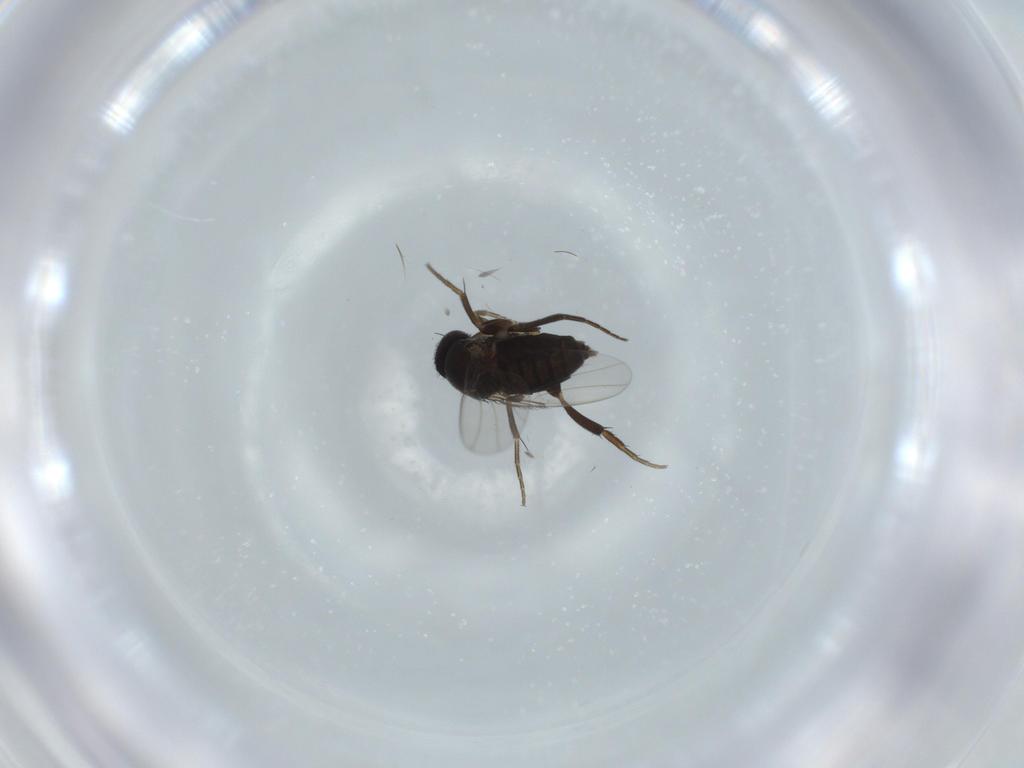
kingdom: Animalia
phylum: Arthropoda
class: Insecta
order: Diptera
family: Phoridae
